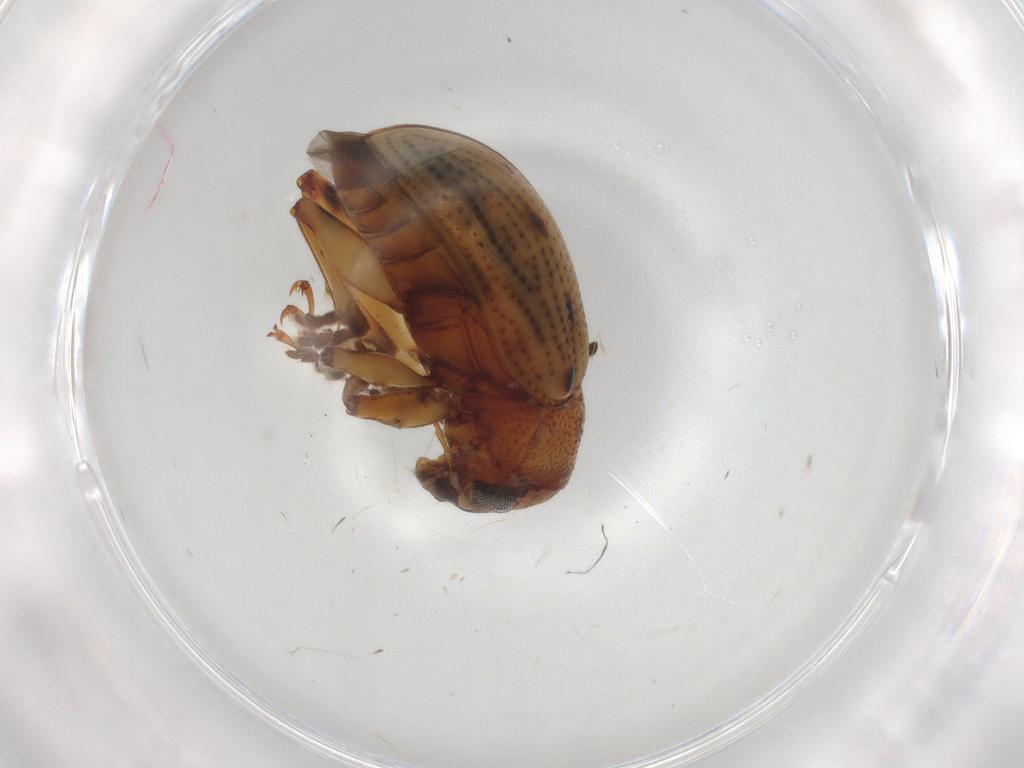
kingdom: Animalia
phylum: Arthropoda
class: Insecta
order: Coleoptera
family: Chrysomelidae
